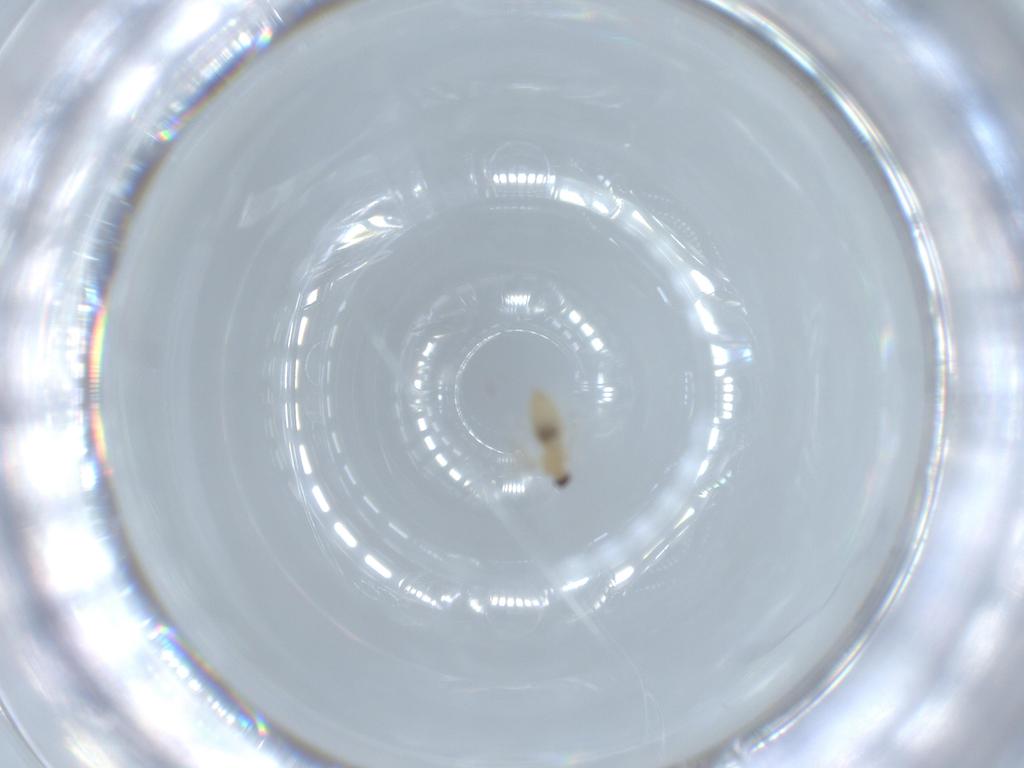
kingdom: Animalia
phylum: Arthropoda
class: Insecta
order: Diptera
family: Cecidomyiidae
